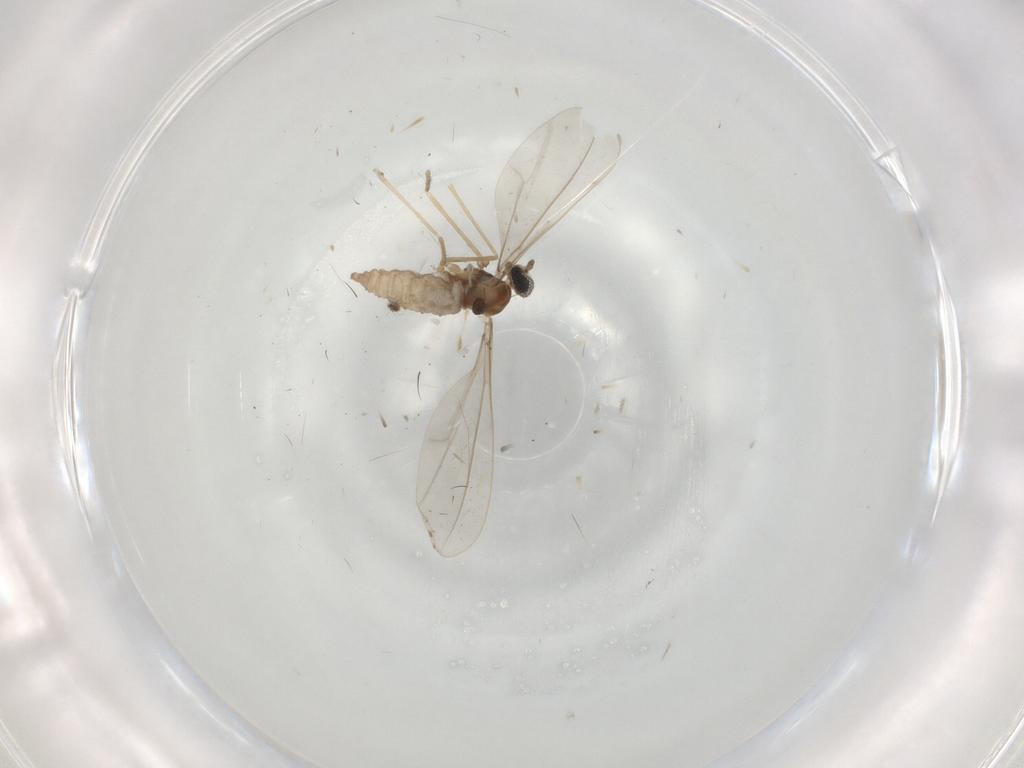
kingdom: Animalia
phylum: Arthropoda
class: Insecta
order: Diptera
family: Cecidomyiidae
